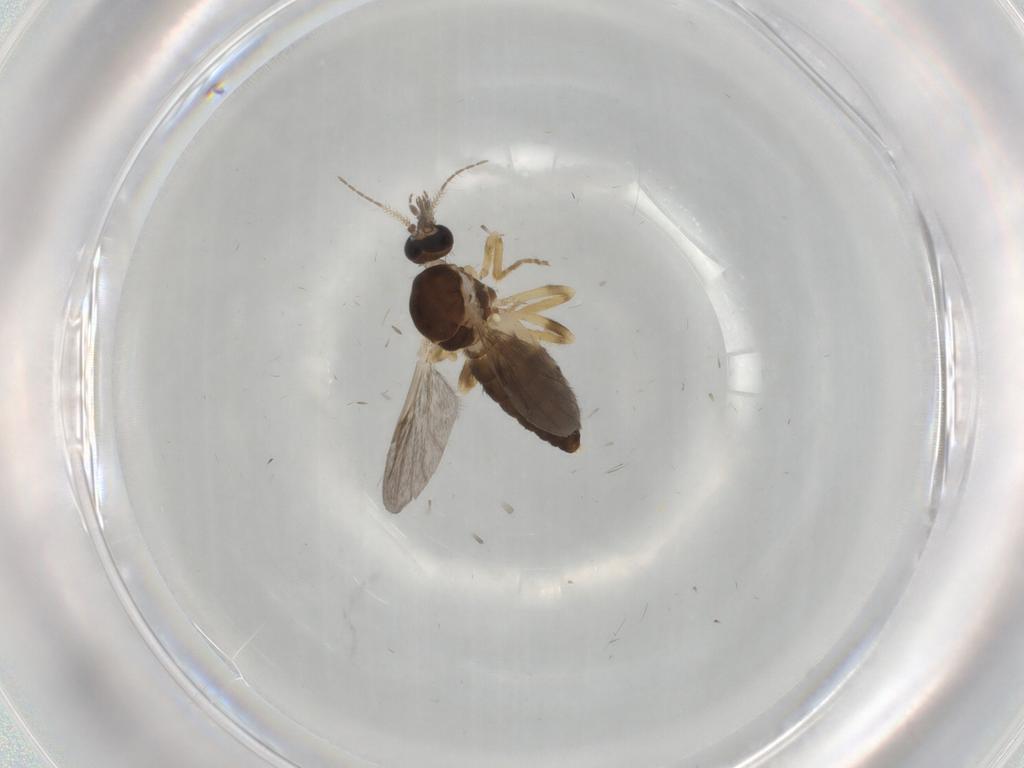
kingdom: Animalia
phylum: Arthropoda
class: Insecta
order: Diptera
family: Ceratopogonidae
